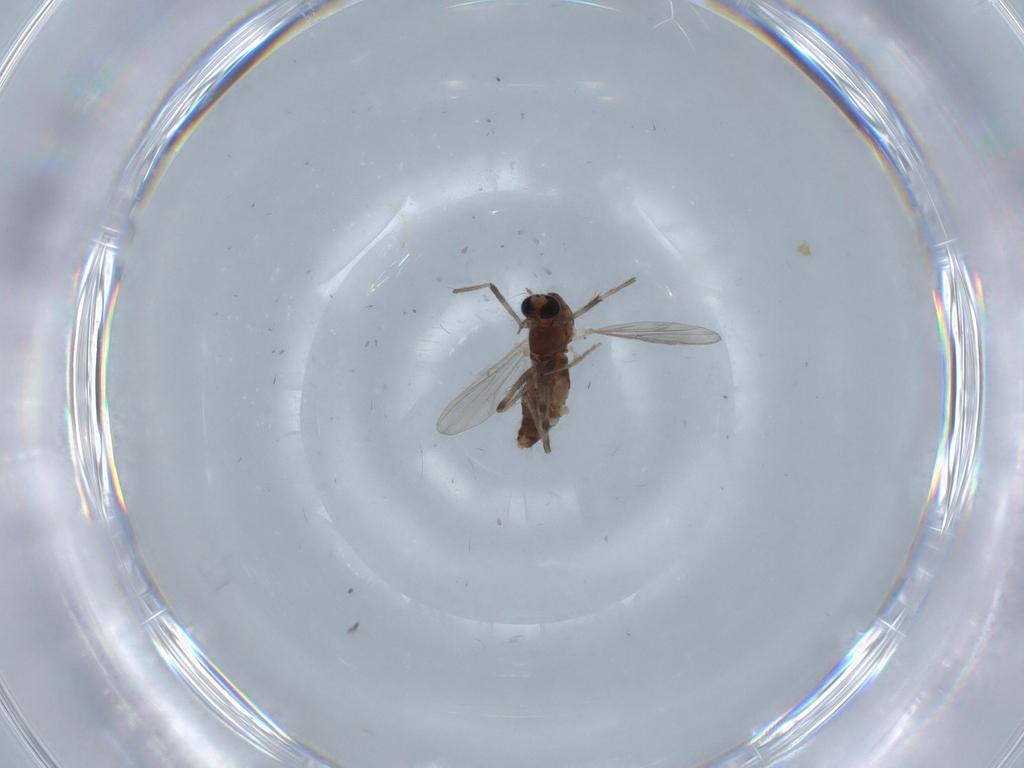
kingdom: Animalia
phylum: Arthropoda
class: Insecta
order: Diptera
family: Chironomidae
